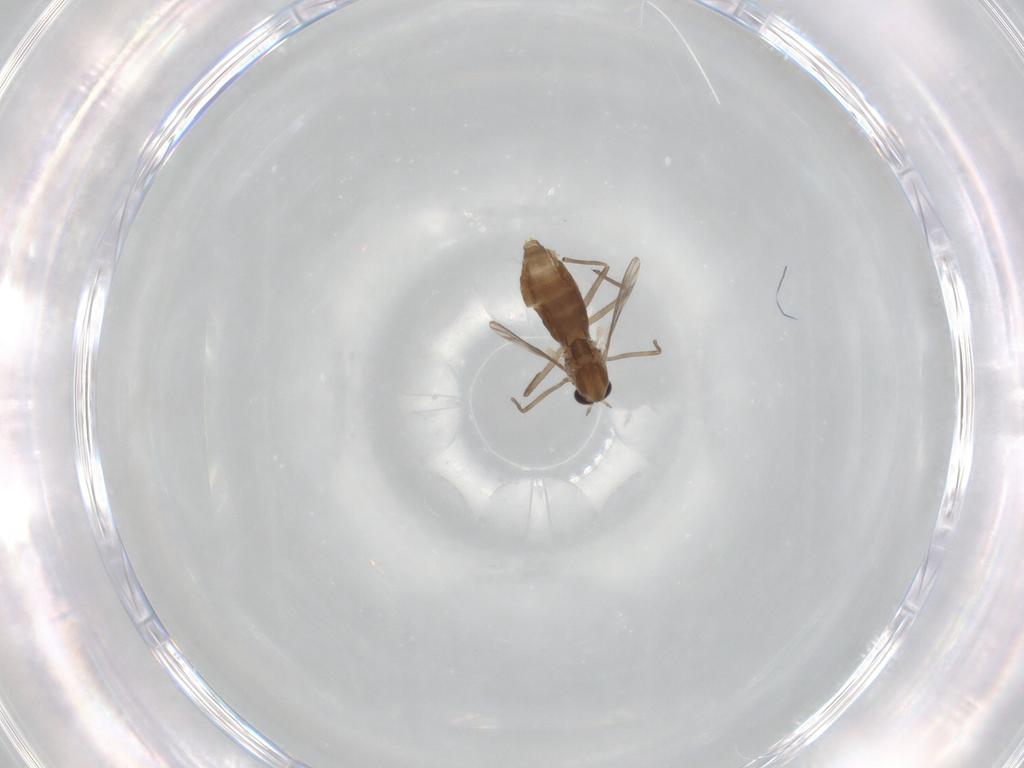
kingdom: Animalia
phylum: Arthropoda
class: Insecta
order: Diptera
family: Chironomidae
